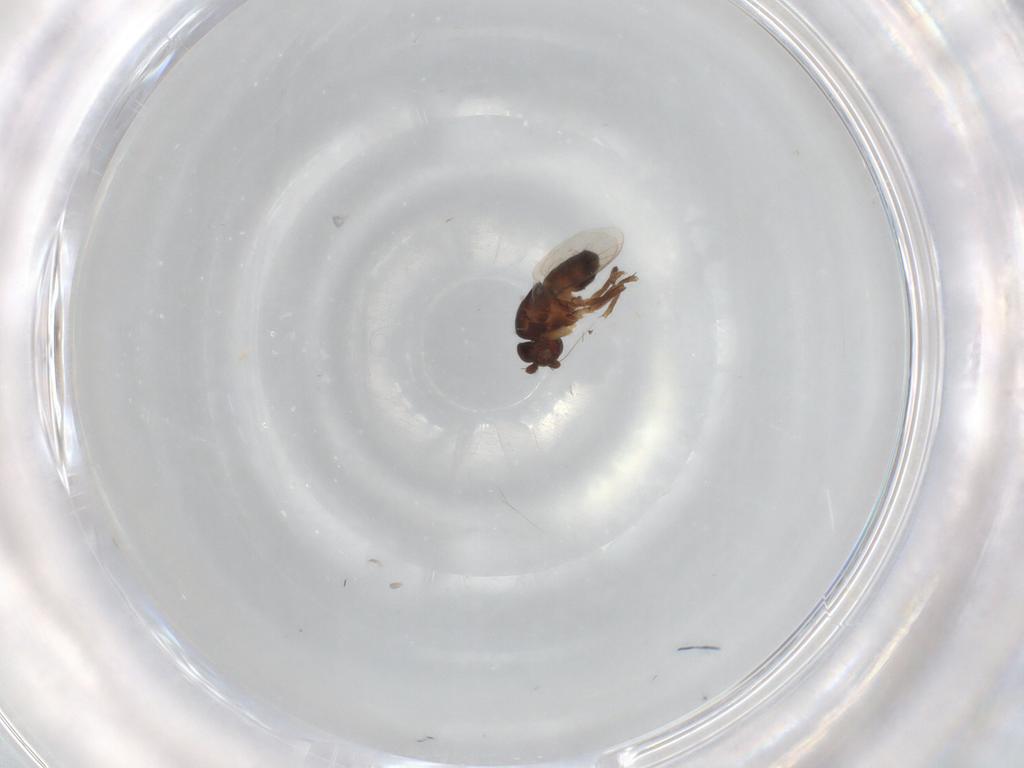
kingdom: Animalia
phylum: Arthropoda
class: Insecta
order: Diptera
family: Sphaeroceridae
